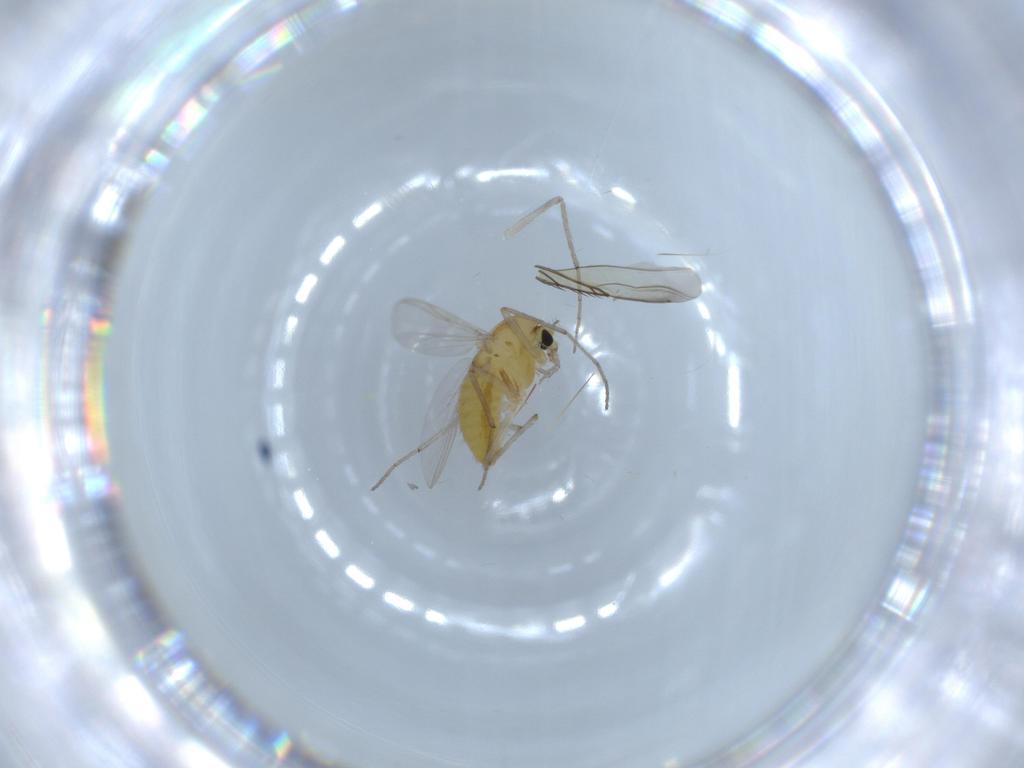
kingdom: Animalia
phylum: Arthropoda
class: Insecta
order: Diptera
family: Sciaridae
